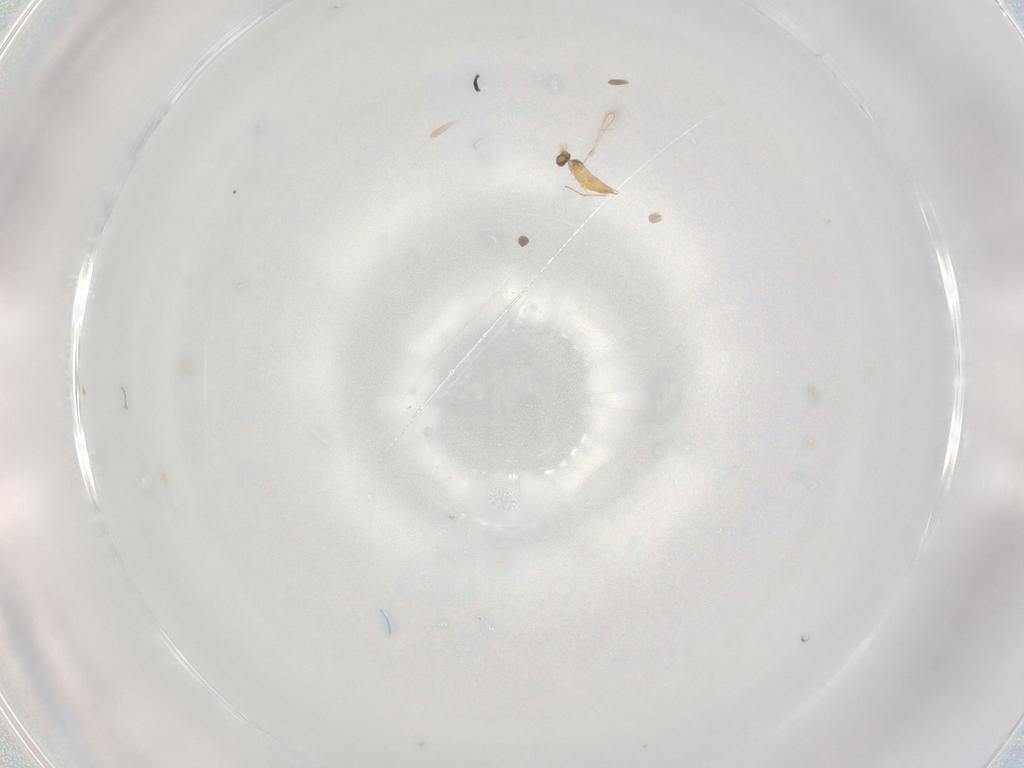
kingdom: Animalia
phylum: Arthropoda
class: Insecta
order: Hymenoptera
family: Mymaridae
